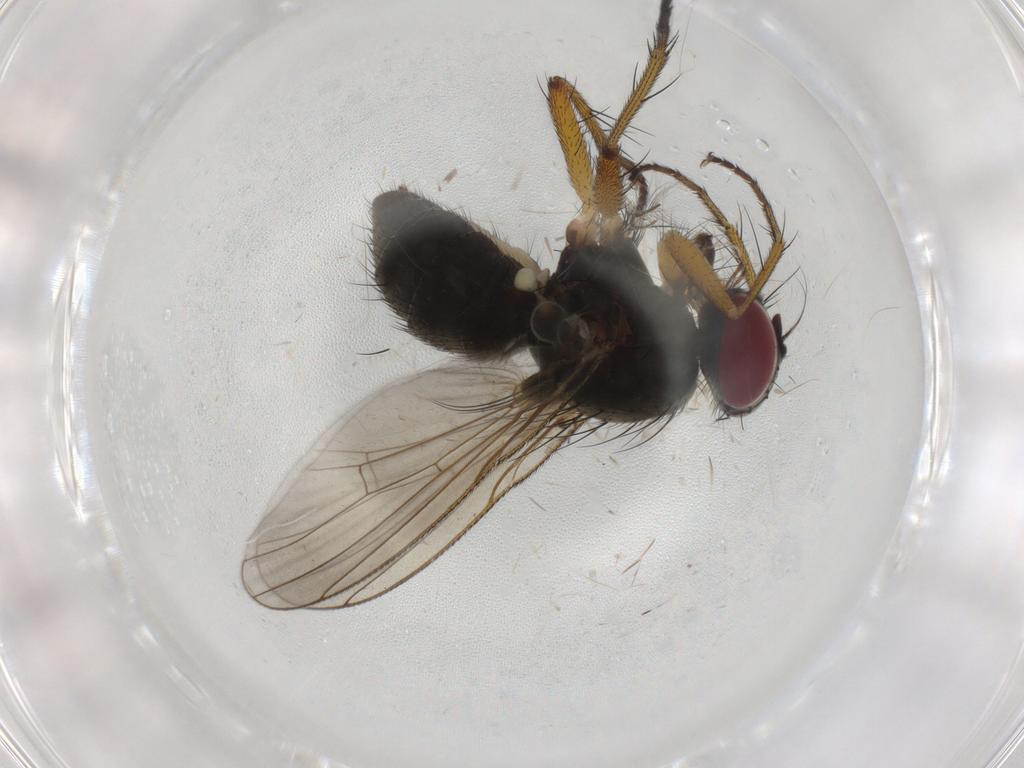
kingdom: Animalia
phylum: Arthropoda
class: Insecta
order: Diptera
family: Muscidae
